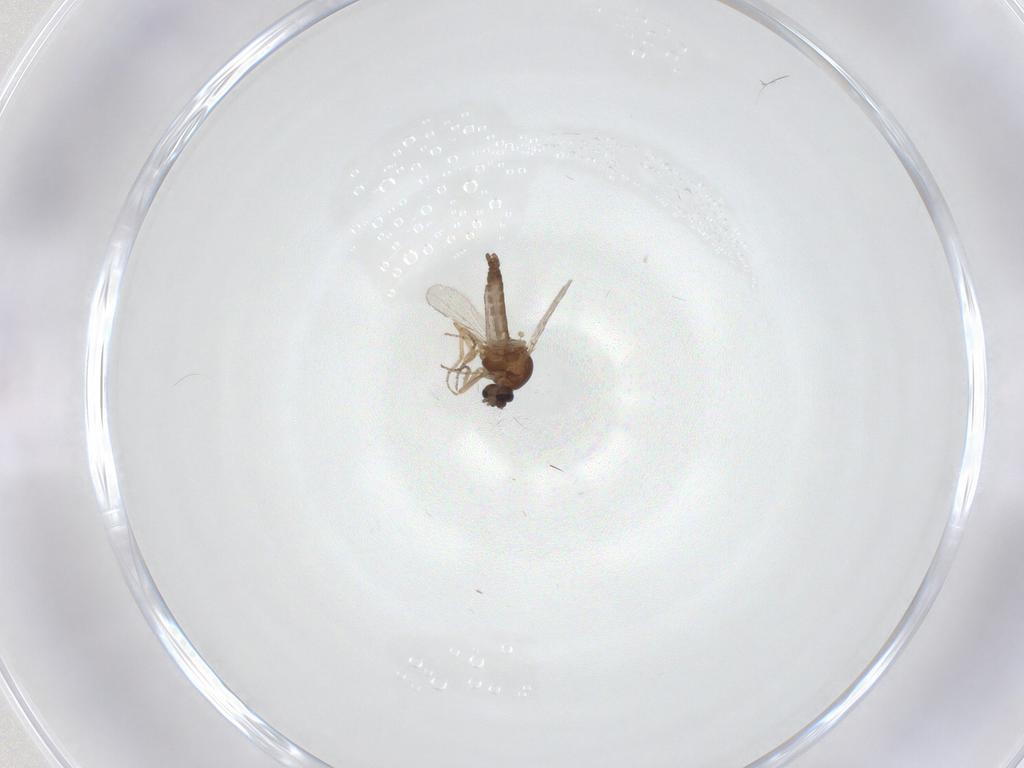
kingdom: Animalia
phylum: Arthropoda
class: Insecta
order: Diptera
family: Ceratopogonidae
